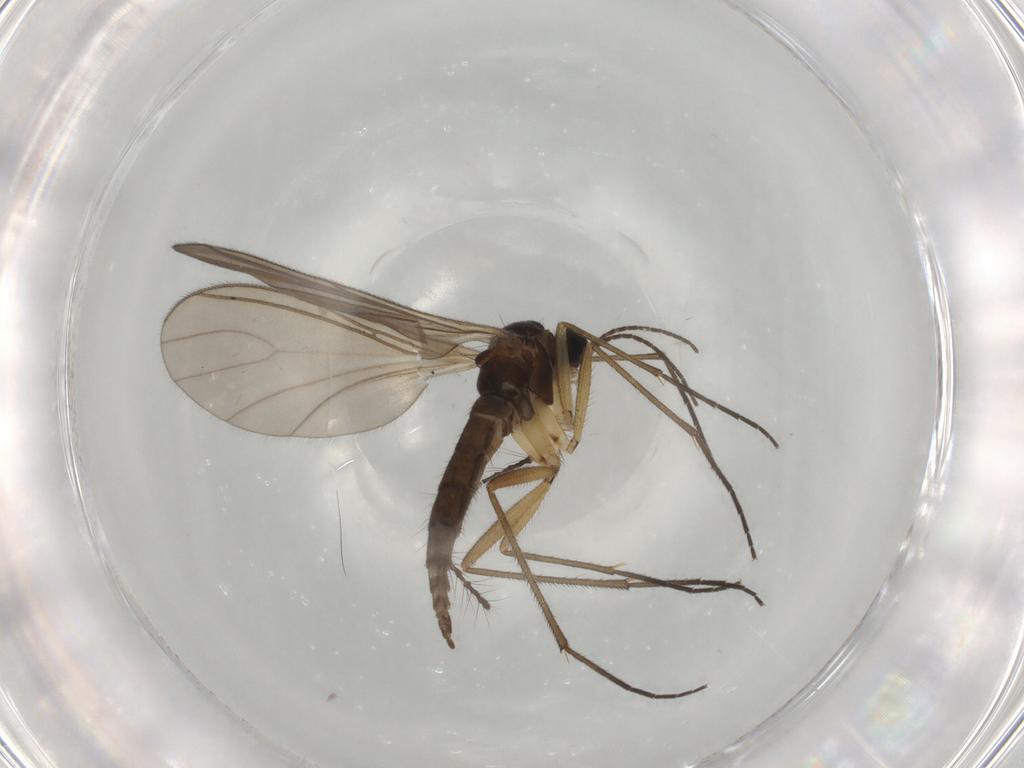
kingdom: Animalia
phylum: Arthropoda
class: Insecta
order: Diptera
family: Sciaridae
